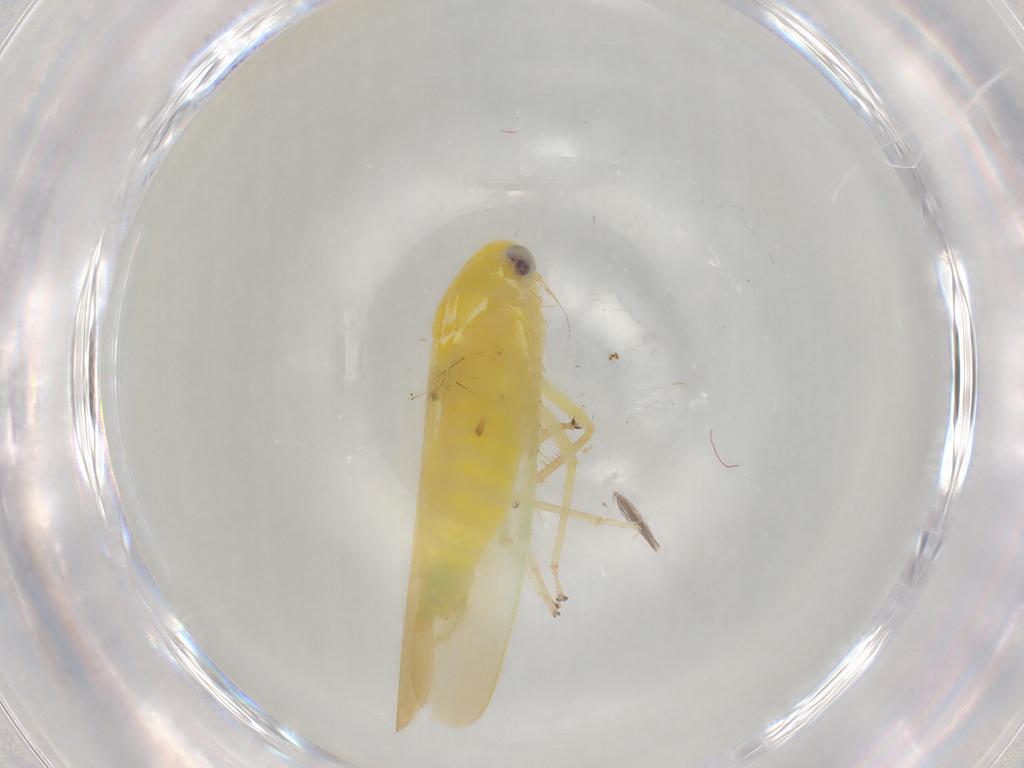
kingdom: Animalia
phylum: Arthropoda
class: Insecta
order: Hemiptera
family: Cicadellidae
